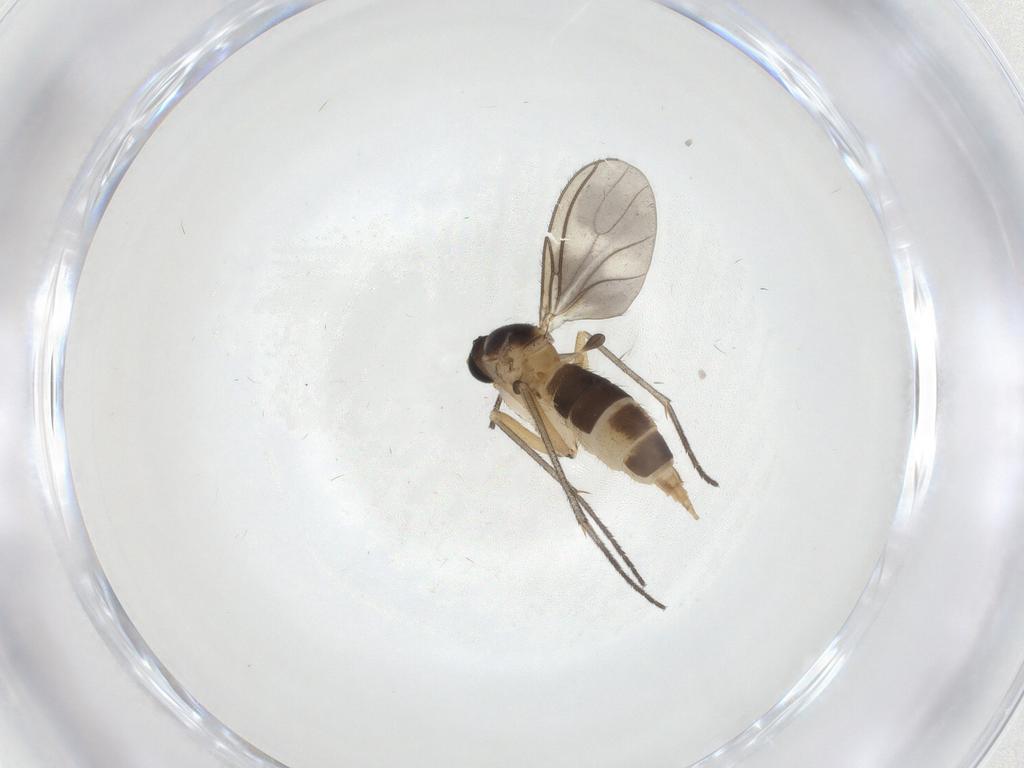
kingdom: Animalia
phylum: Arthropoda
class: Insecta
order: Diptera
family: Sciaridae
